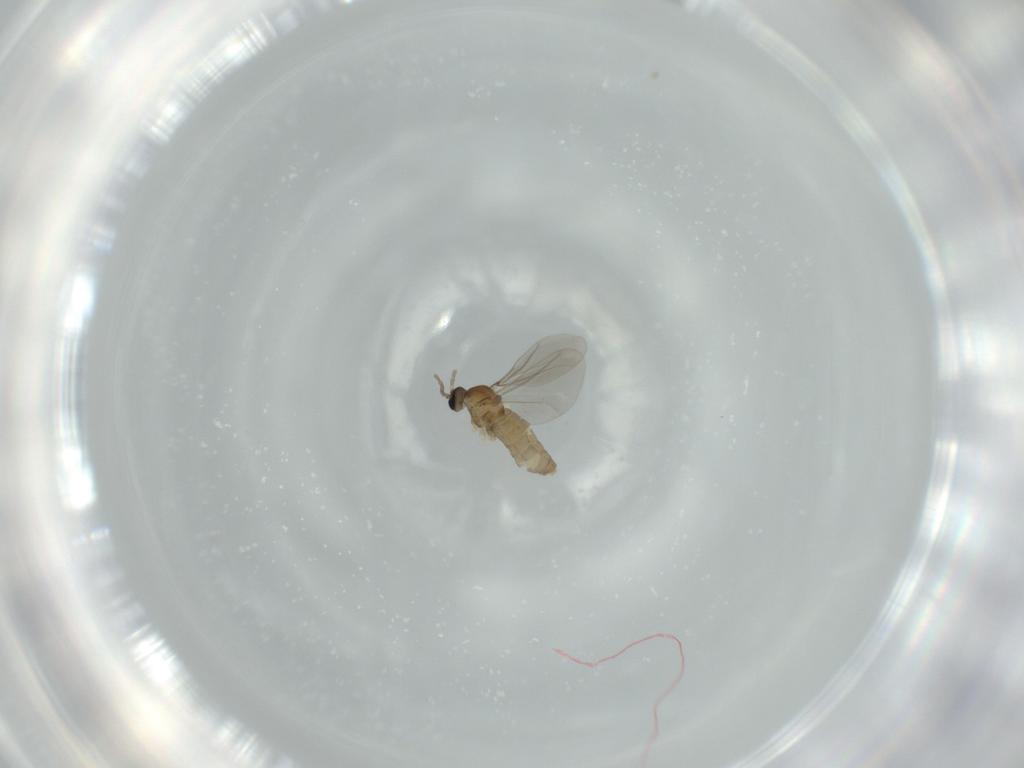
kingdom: Animalia
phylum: Arthropoda
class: Insecta
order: Diptera
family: Cecidomyiidae
